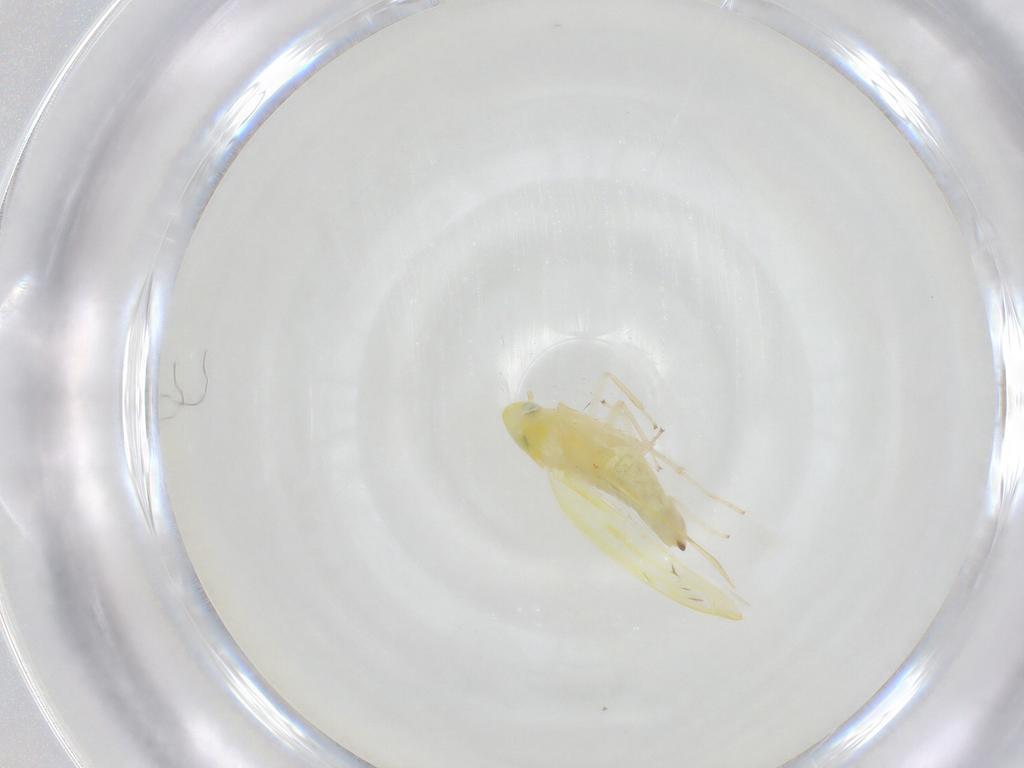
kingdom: Animalia
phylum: Arthropoda
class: Insecta
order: Hemiptera
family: Cicadellidae
